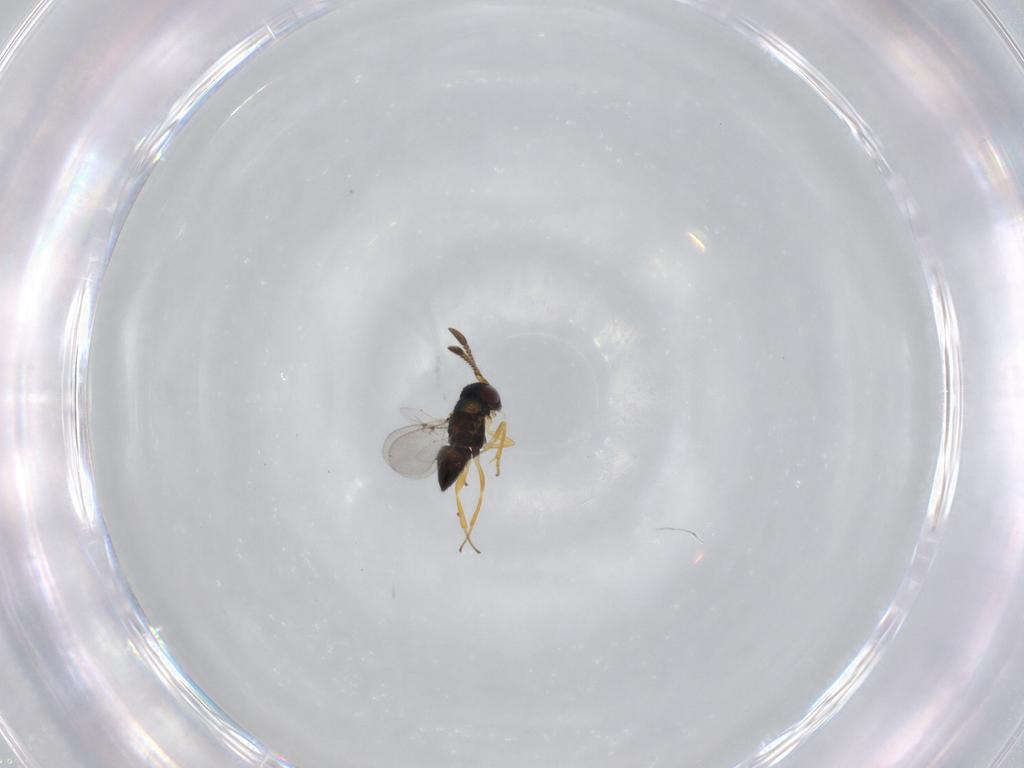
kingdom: Animalia
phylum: Arthropoda
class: Insecta
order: Hymenoptera
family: Encyrtidae
